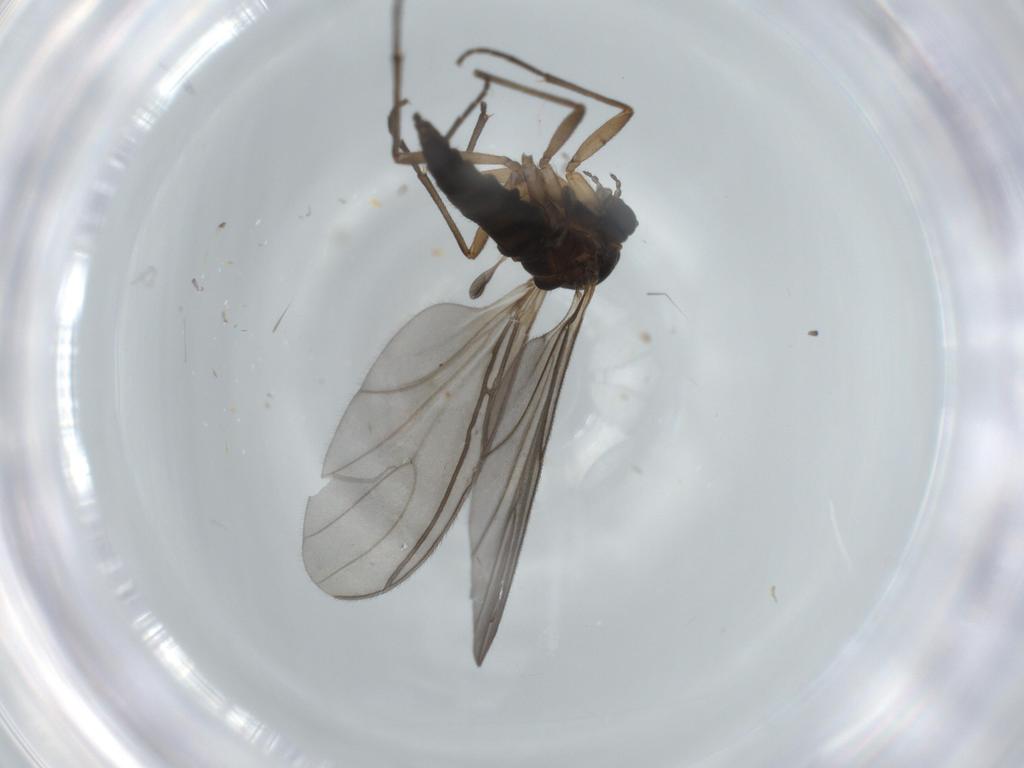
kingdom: Animalia
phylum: Arthropoda
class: Insecta
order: Diptera
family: Sciaridae
